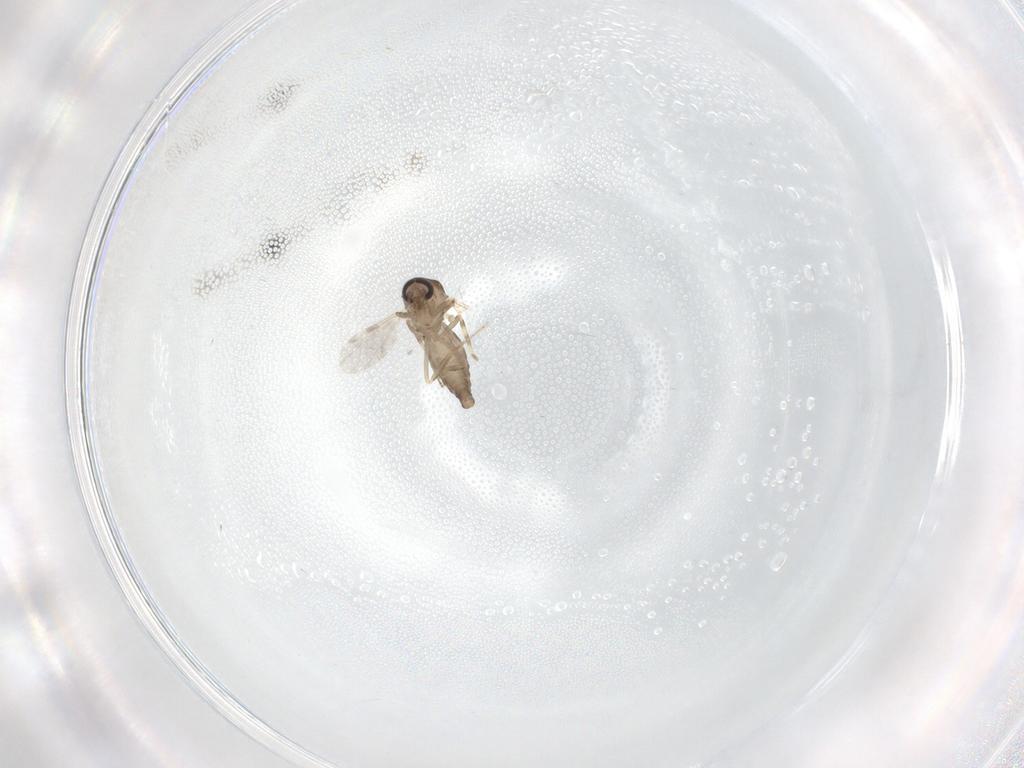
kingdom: Animalia
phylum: Arthropoda
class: Insecta
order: Diptera
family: Ceratopogonidae
